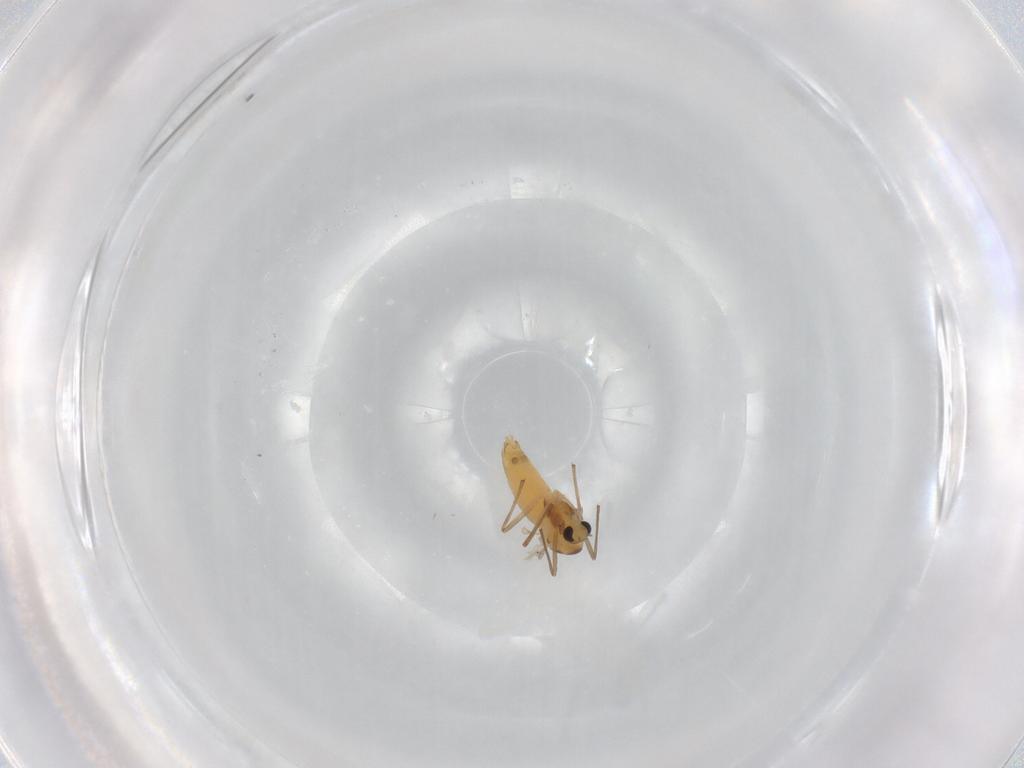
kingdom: Animalia
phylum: Arthropoda
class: Insecta
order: Diptera
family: Chironomidae
